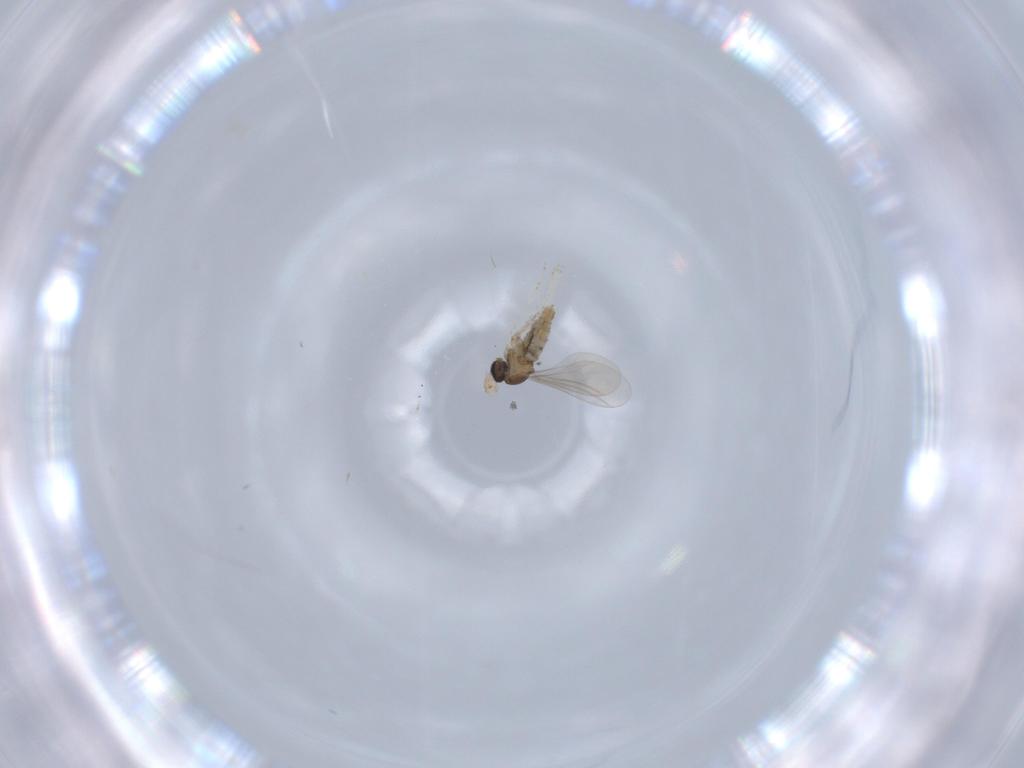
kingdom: Animalia
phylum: Arthropoda
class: Insecta
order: Diptera
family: Cecidomyiidae
